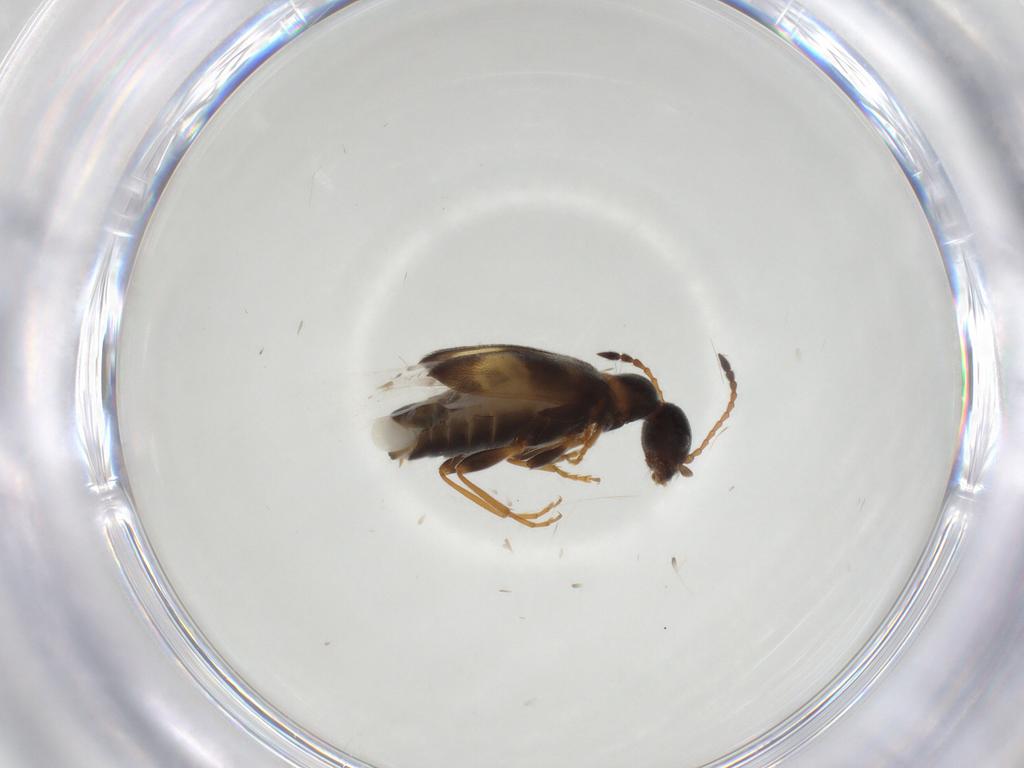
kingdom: Animalia
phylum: Arthropoda
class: Insecta
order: Coleoptera
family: Anthicidae
